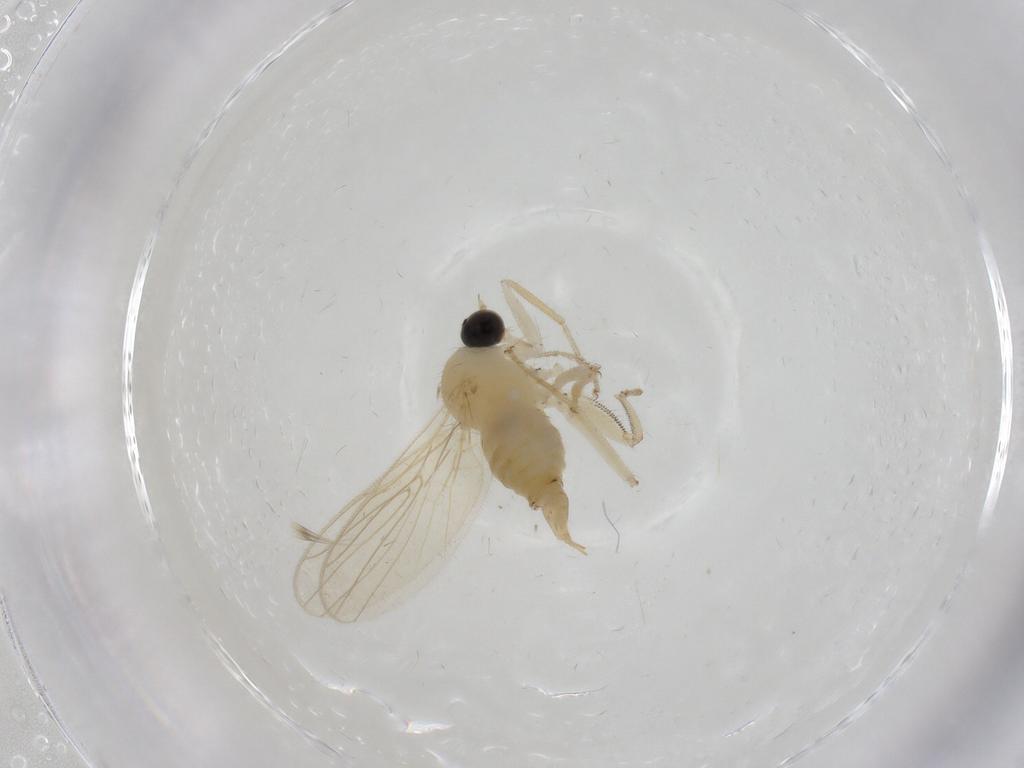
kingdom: Animalia
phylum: Arthropoda
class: Insecta
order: Diptera
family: Hybotidae
